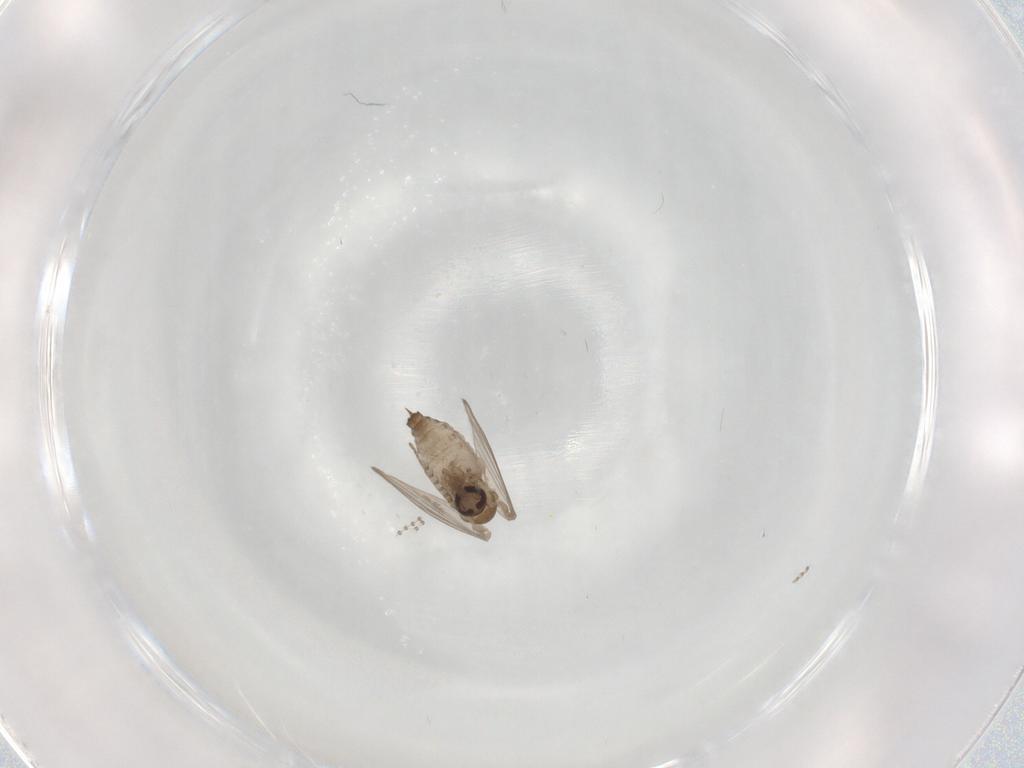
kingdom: Animalia
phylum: Arthropoda
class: Insecta
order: Diptera
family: Psychodidae
